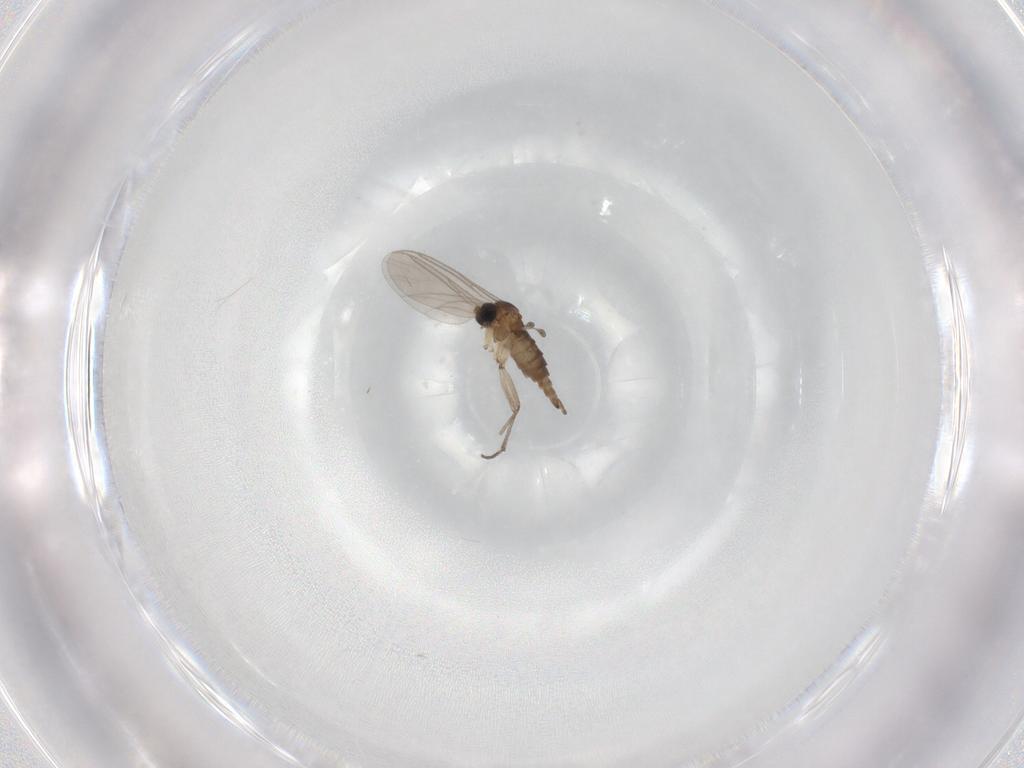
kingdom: Animalia
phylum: Arthropoda
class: Insecta
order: Diptera
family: Sciaridae
